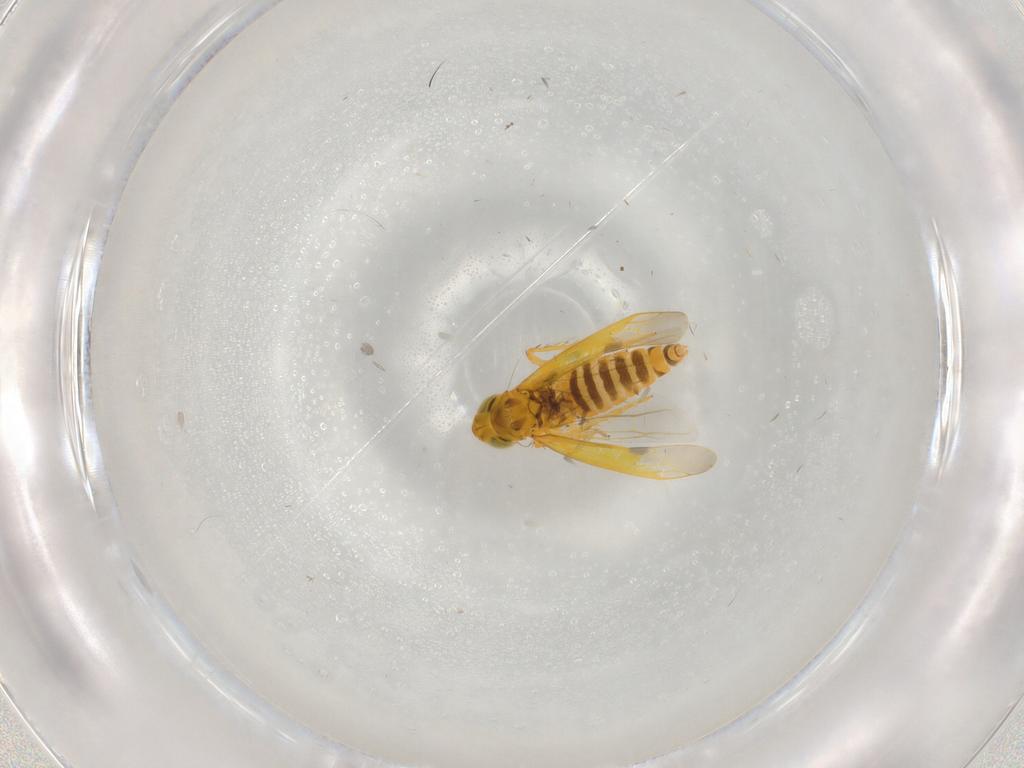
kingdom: Animalia
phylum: Arthropoda
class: Insecta
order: Hemiptera
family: Cicadellidae
